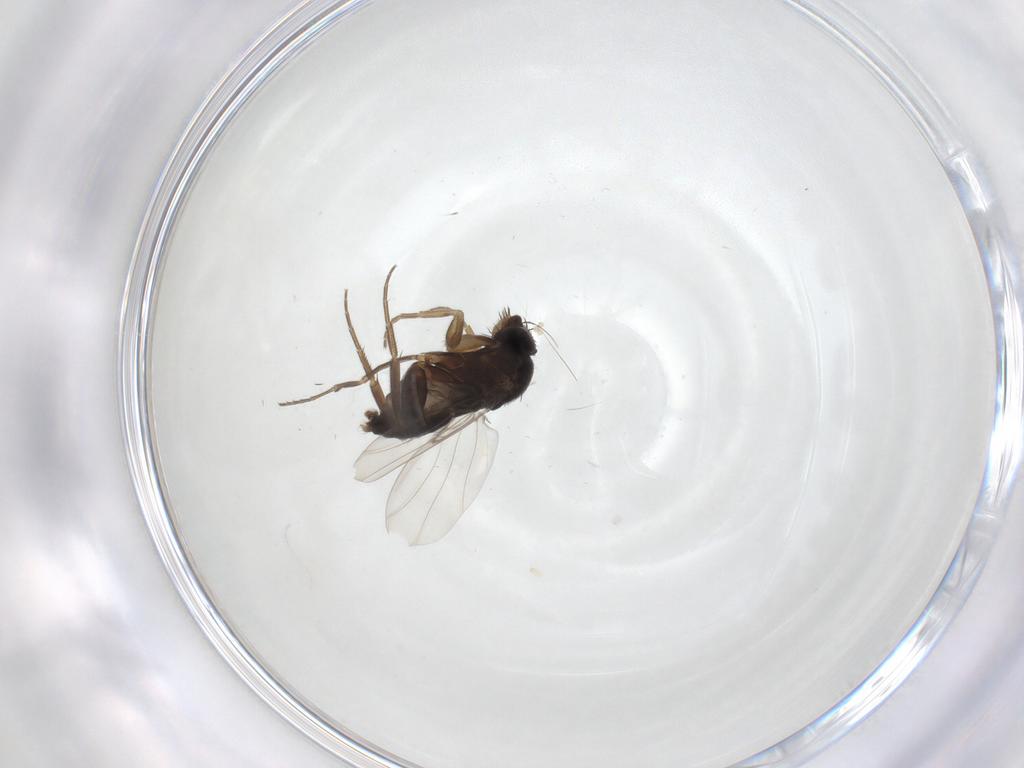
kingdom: Animalia
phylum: Arthropoda
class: Insecta
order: Diptera
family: Phoridae
